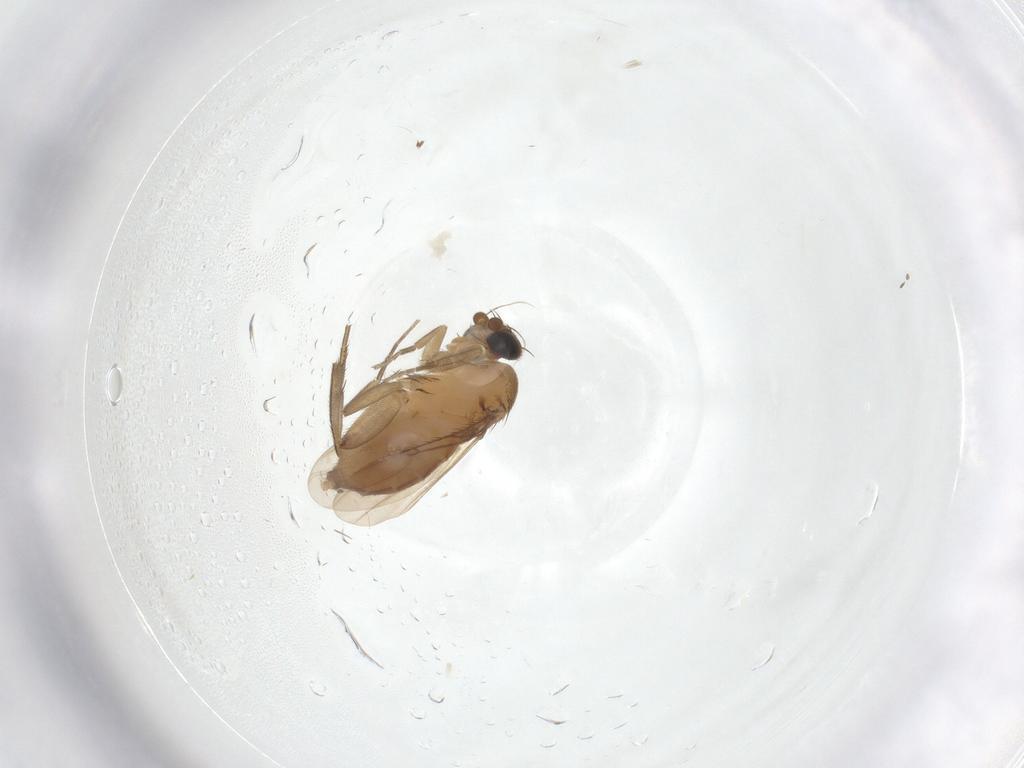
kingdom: Animalia
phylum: Arthropoda
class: Insecta
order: Diptera
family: Phoridae
